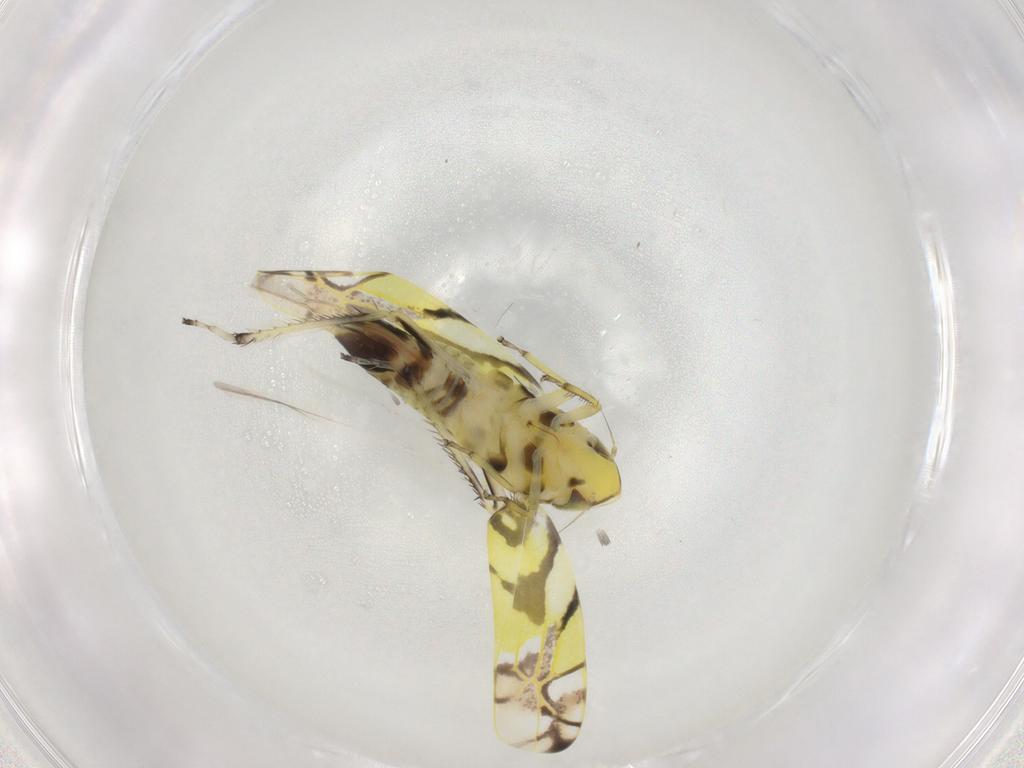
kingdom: Animalia
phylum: Arthropoda
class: Insecta
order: Hemiptera
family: Cicadellidae
